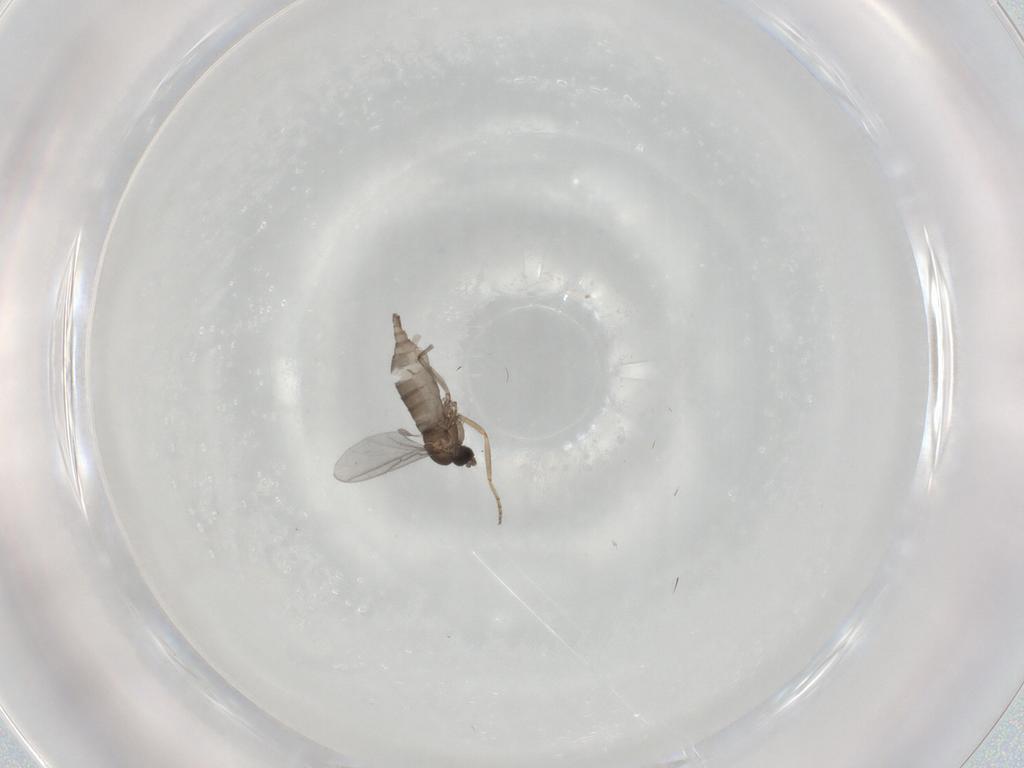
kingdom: Animalia
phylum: Arthropoda
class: Insecta
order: Diptera
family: Sciaridae
